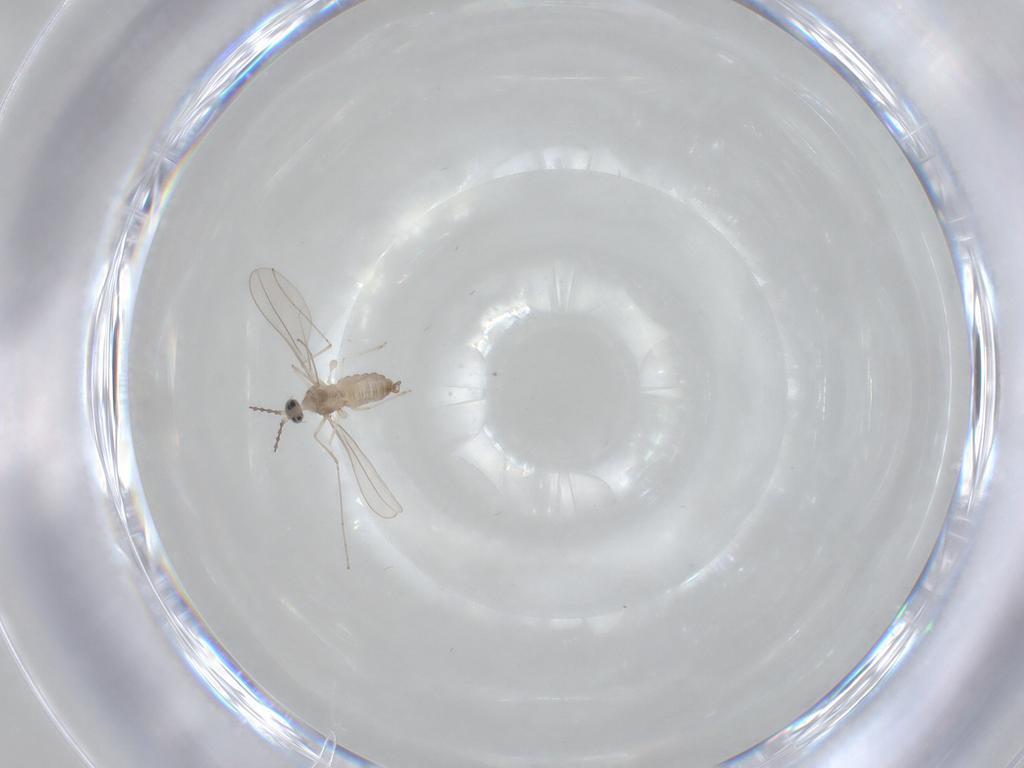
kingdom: Animalia
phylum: Arthropoda
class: Insecta
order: Diptera
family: Cecidomyiidae
